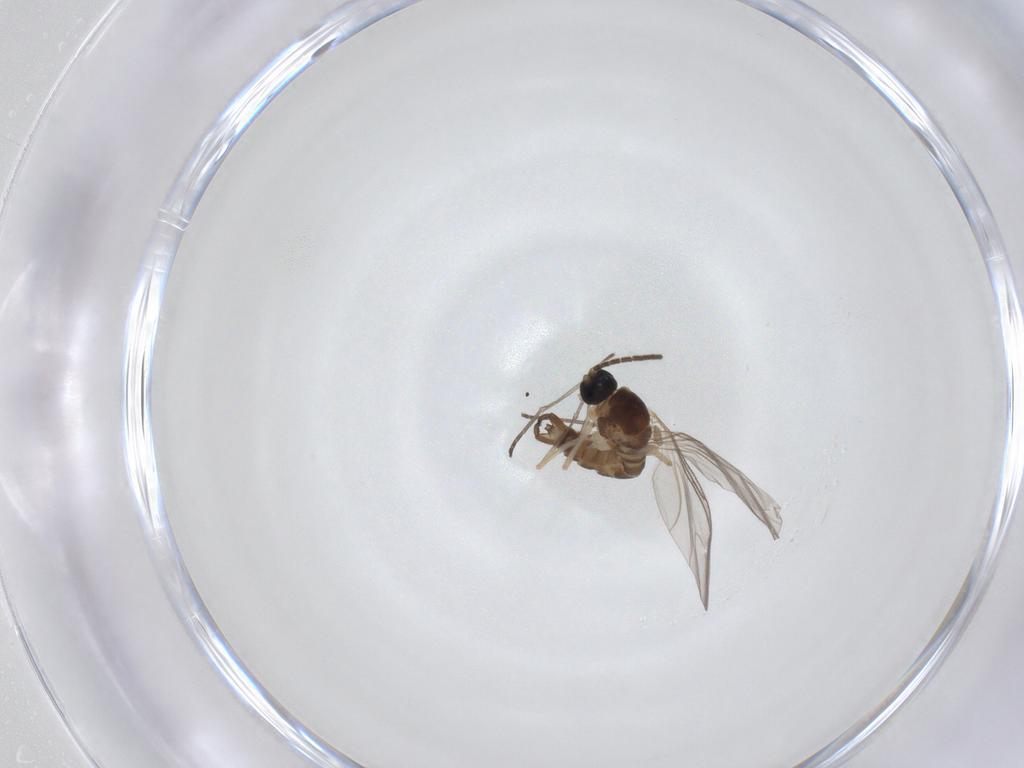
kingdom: Animalia
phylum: Arthropoda
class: Insecta
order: Diptera
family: Sciaridae
